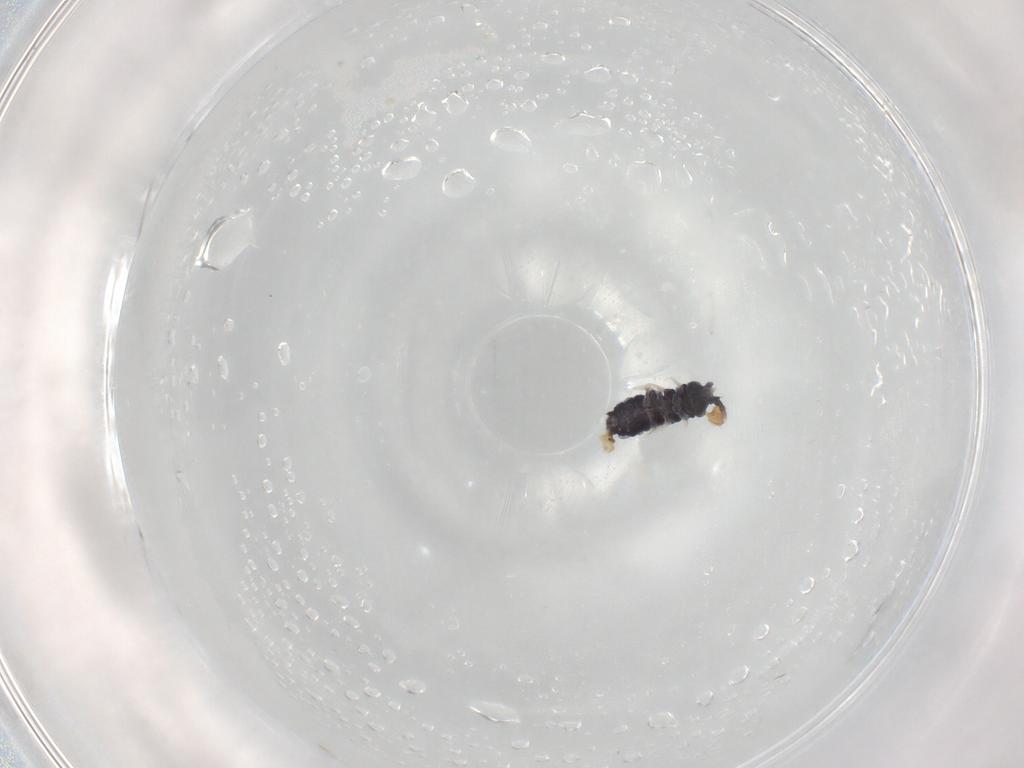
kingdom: Animalia
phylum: Arthropoda
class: Collembola
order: Poduromorpha
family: Neanuridae
